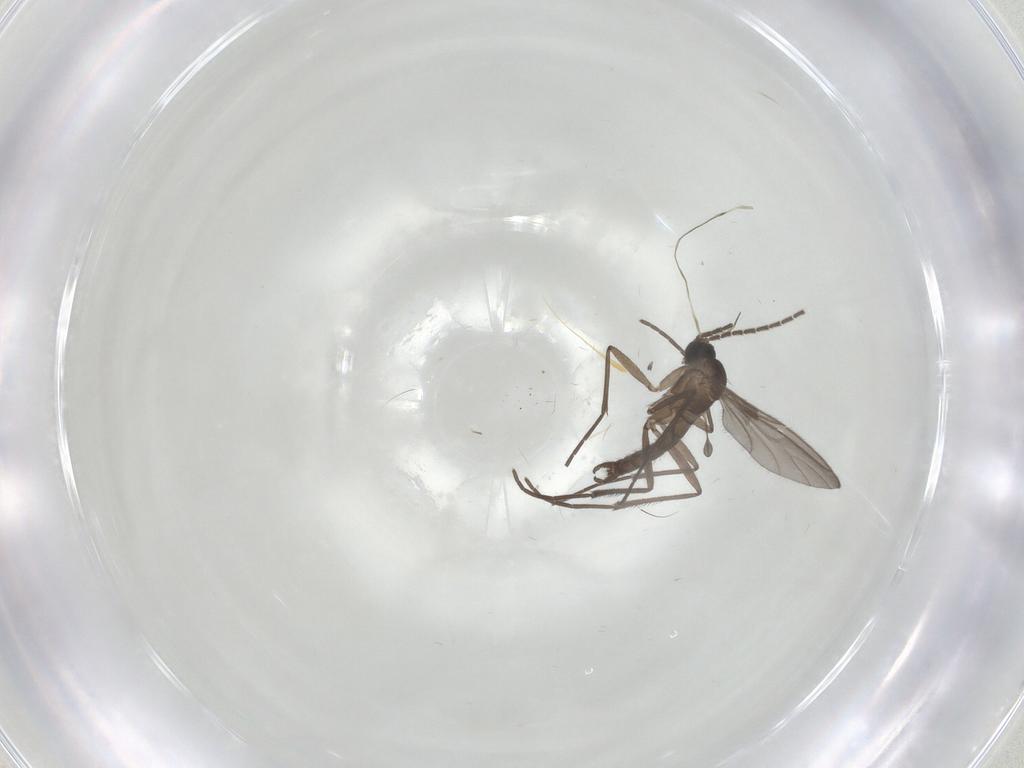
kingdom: Animalia
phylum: Arthropoda
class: Insecta
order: Diptera
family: Sciaridae
